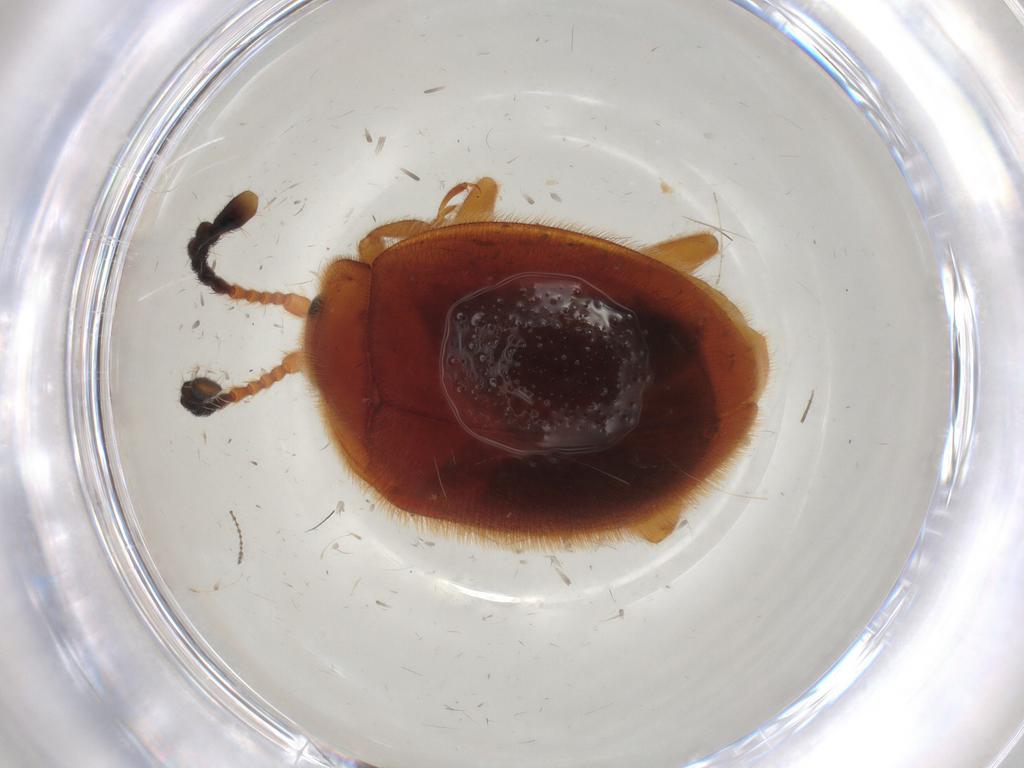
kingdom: Animalia
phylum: Arthropoda
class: Insecta
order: Coleoptera
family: Endomychidae
